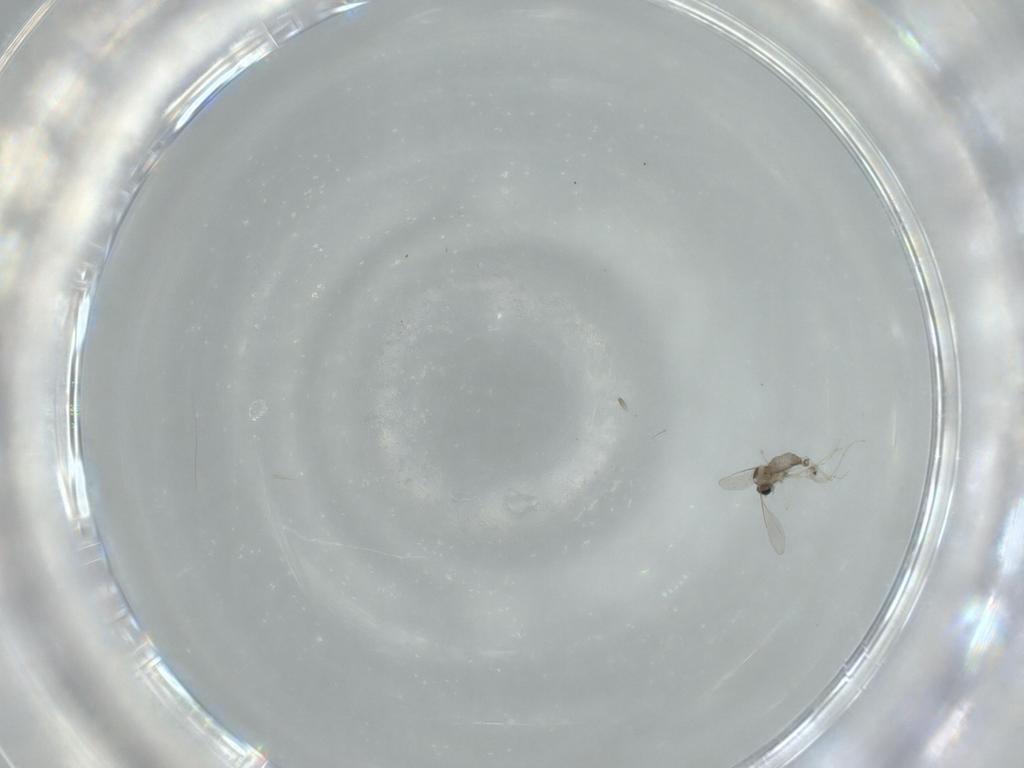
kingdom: Animalia
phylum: Arthropoda
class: Insecta
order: Diptera
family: Cecidomyiidae
